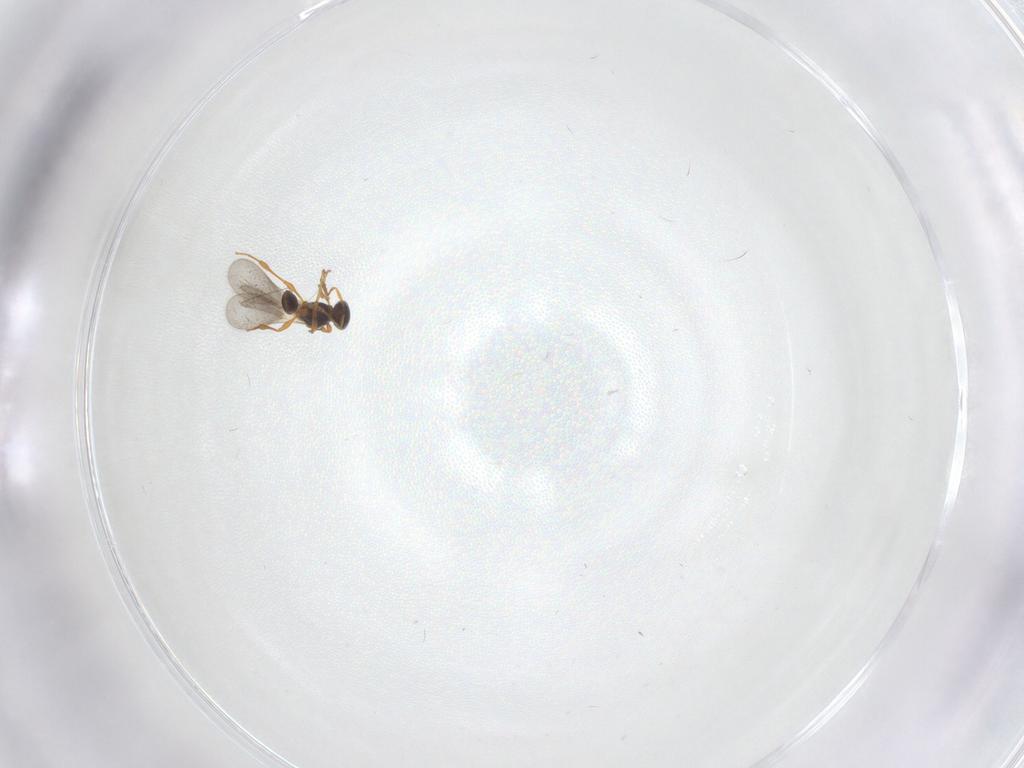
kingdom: Animalia
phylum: Arthropoda
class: Insecta
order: Hymenoptera
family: Platygastridae
